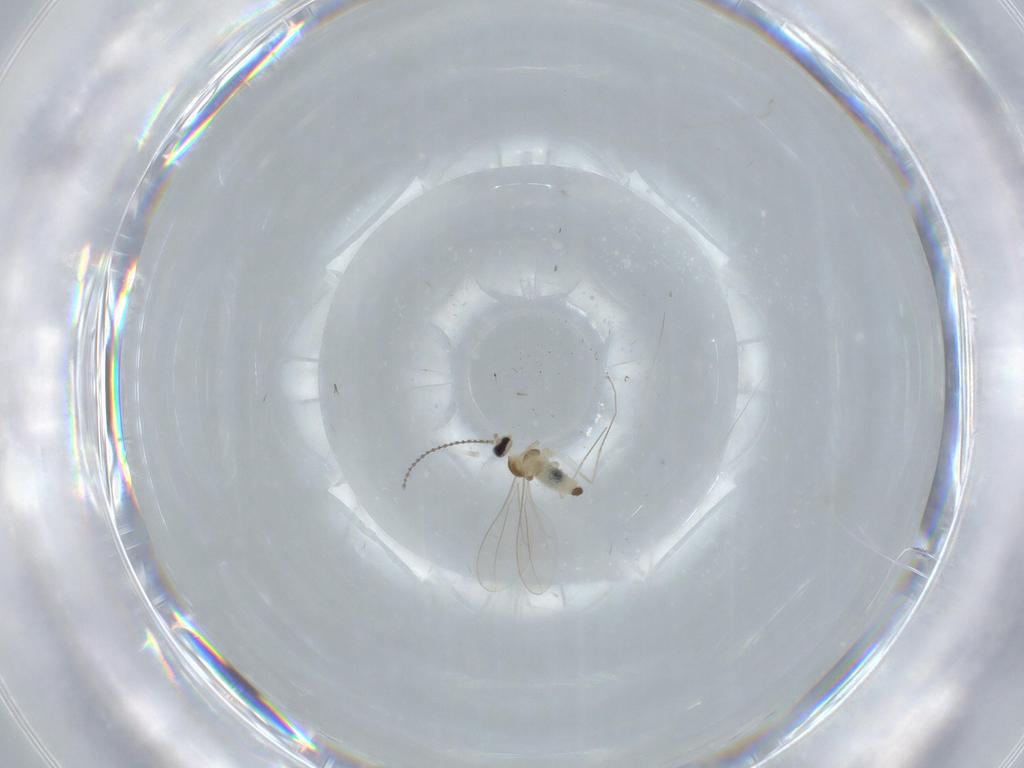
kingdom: Animalia
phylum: Arthropoda
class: Insecta
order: Diptera
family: Cecidomyiidae
